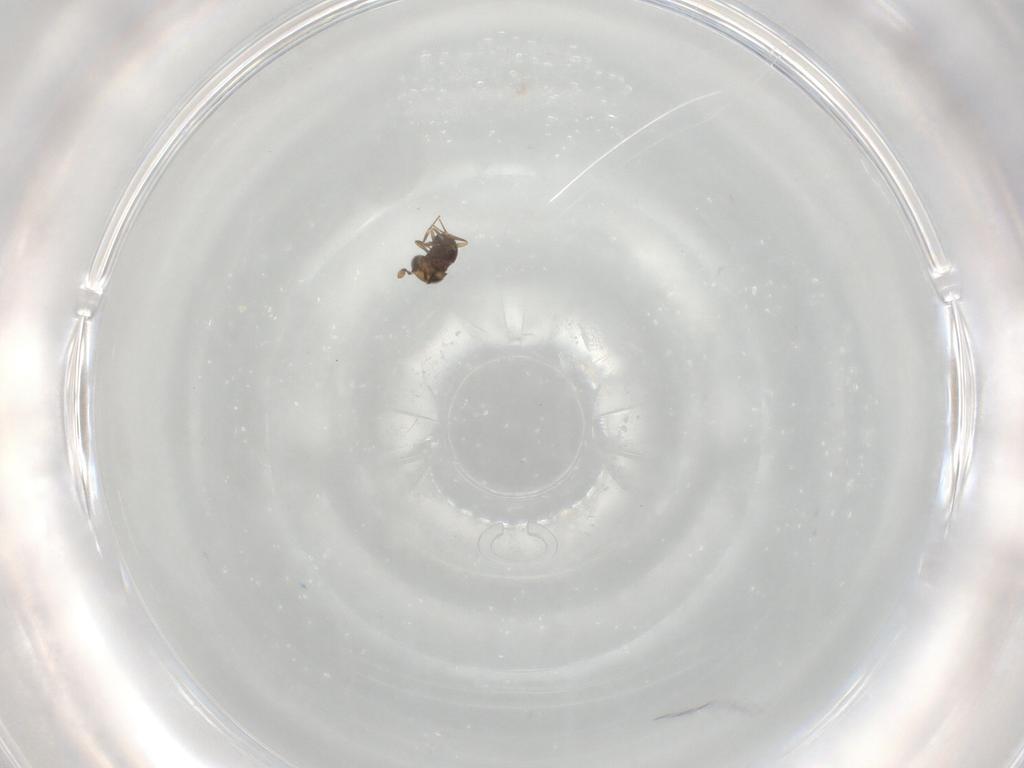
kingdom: Animalia
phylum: Arthropoda
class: Insecta
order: Hymenoptera
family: Scelionidae
